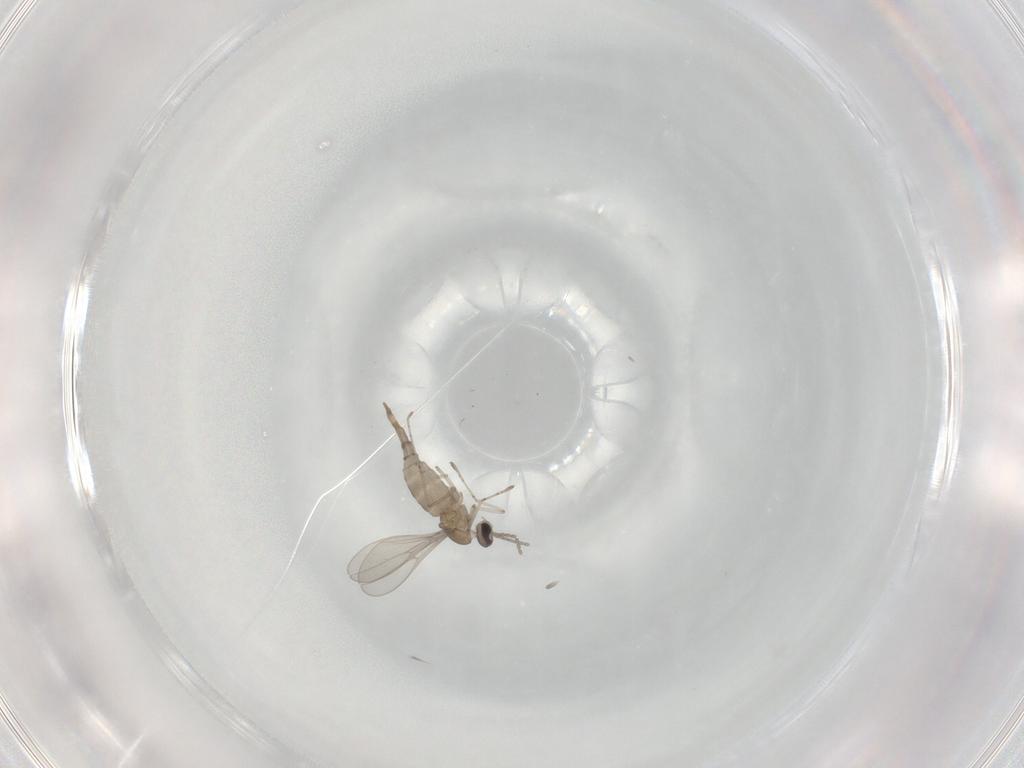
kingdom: Animalia
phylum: Arthropoda
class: Insecta
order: Diptera
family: Cecidomyiidae
